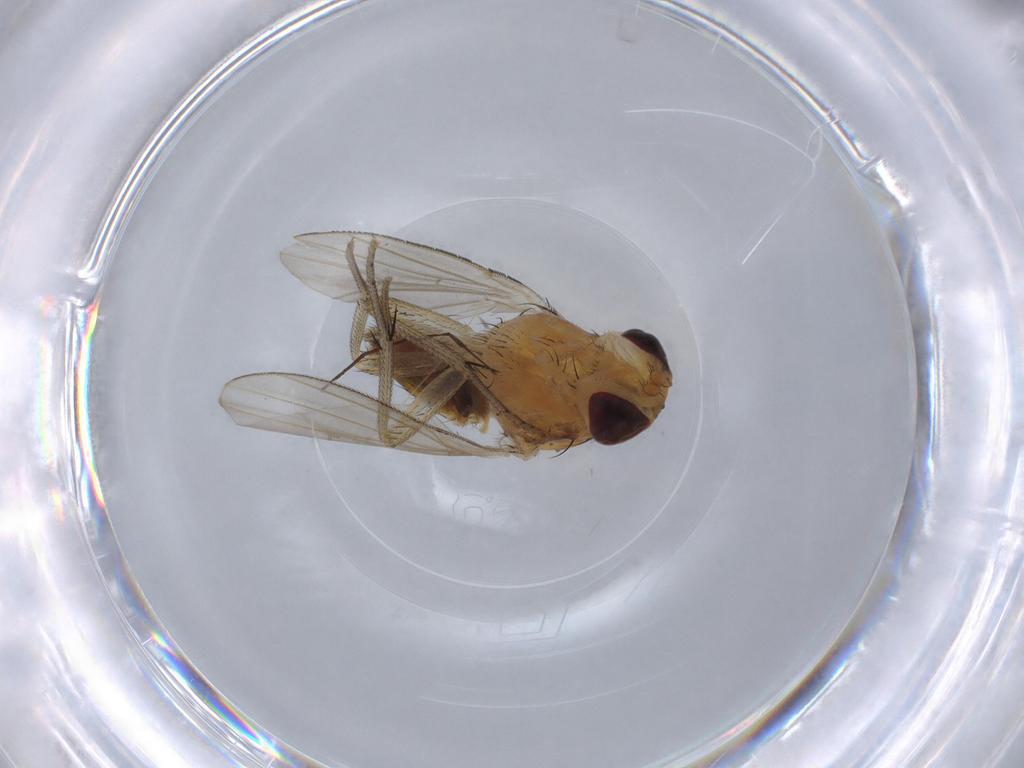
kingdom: Animalia
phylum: Arthropoda
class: Insecta
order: Diptera
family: Lauxaniidae
